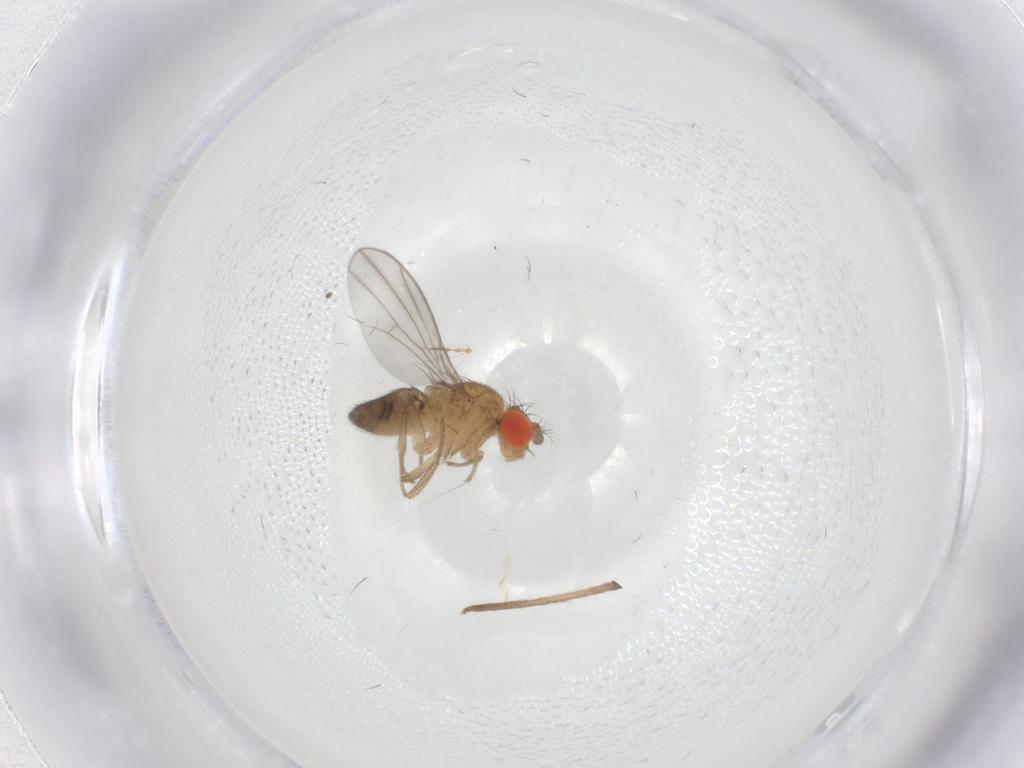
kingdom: Animalia
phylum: Arthropoda
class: Insecta
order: Diptera
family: Drosophilidae
